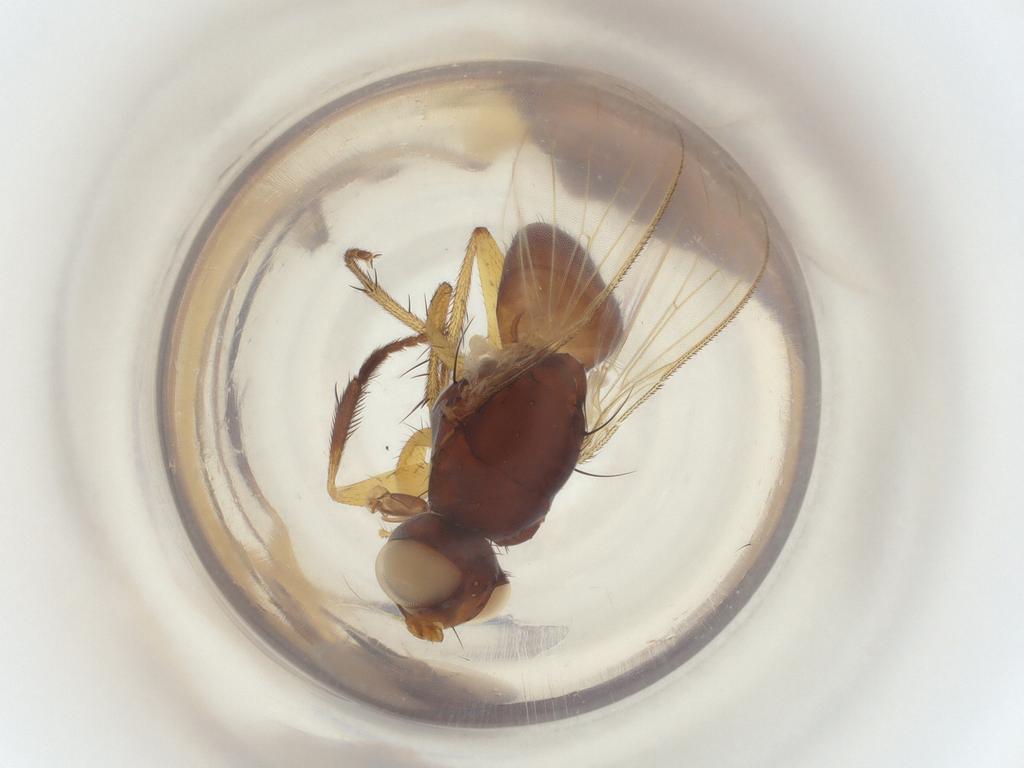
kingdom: Animalia
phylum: Arthropoda
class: Insecta
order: Diptera
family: Muscidae
